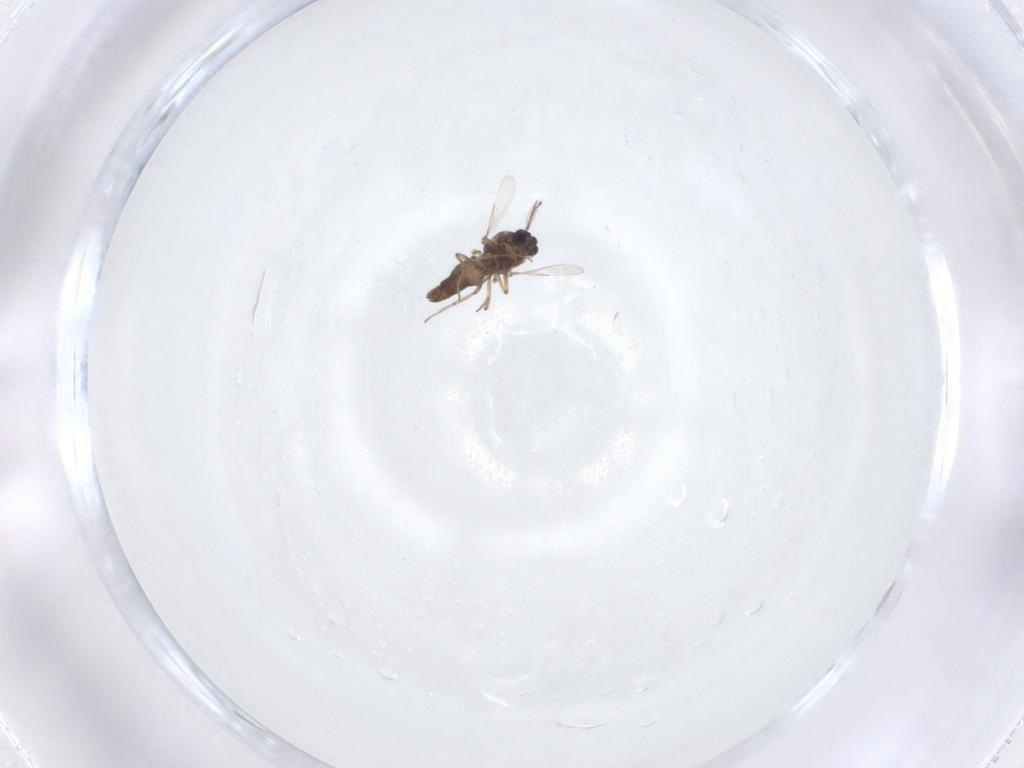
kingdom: Animalia
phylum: Arthropoda
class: Insecta
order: Diptera
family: Ceratopogonidae
